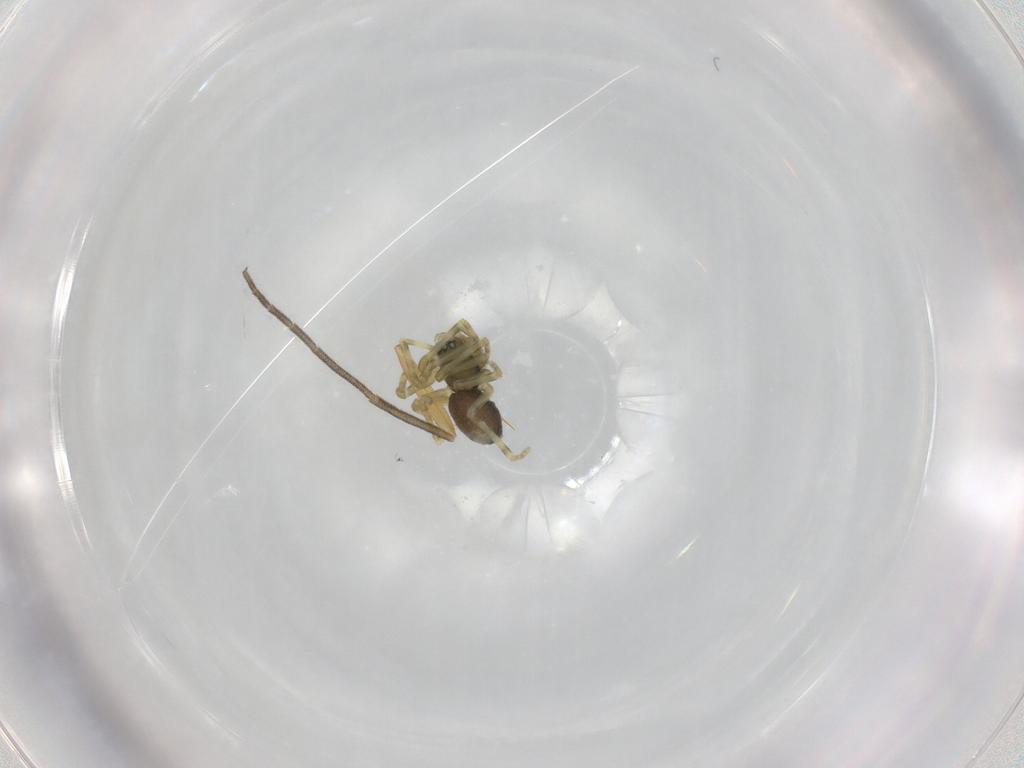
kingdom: Animalia
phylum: Arthropoda
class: Arachnida
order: Araneae
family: Linyphiidae
